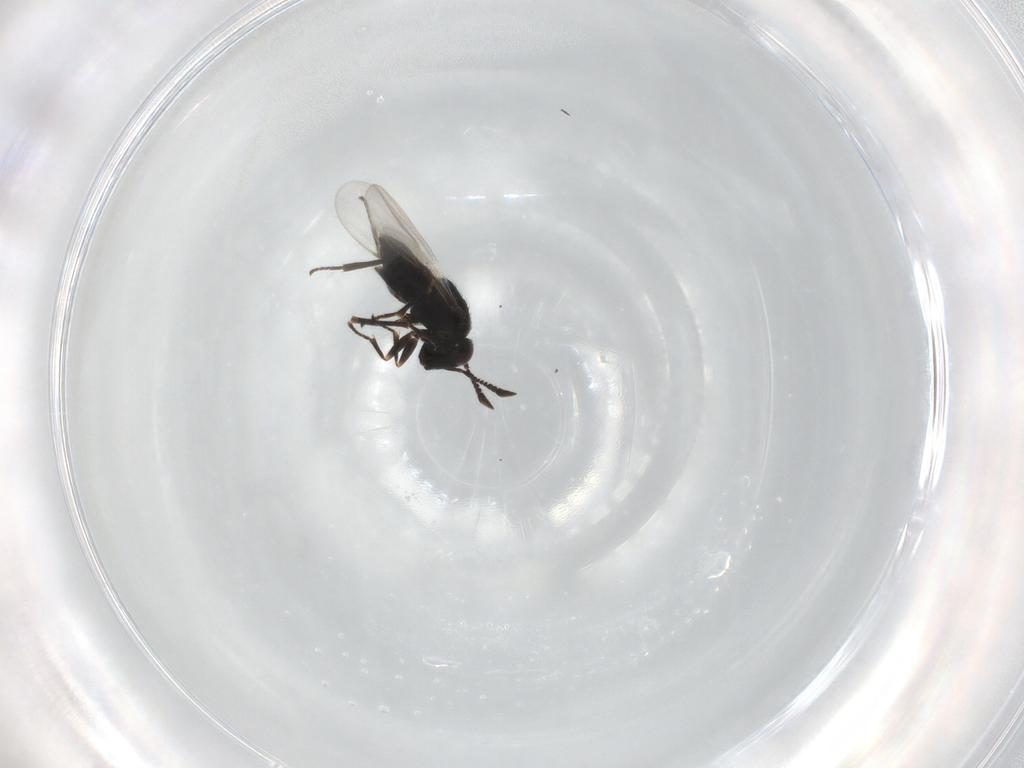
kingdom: Animalia
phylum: Arthropoda
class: Insecta
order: Hymenoptera
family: Encyrtidae
